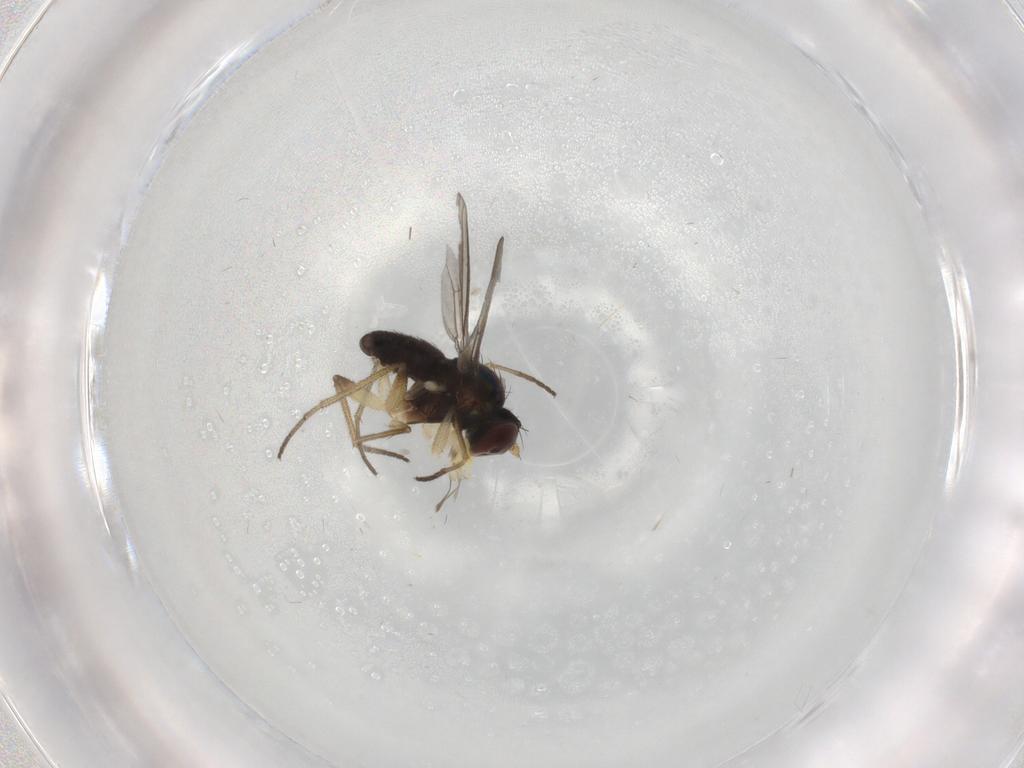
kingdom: Animalia
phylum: Arthropoda
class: Insecta
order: Diptera
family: Dolichopodidae
